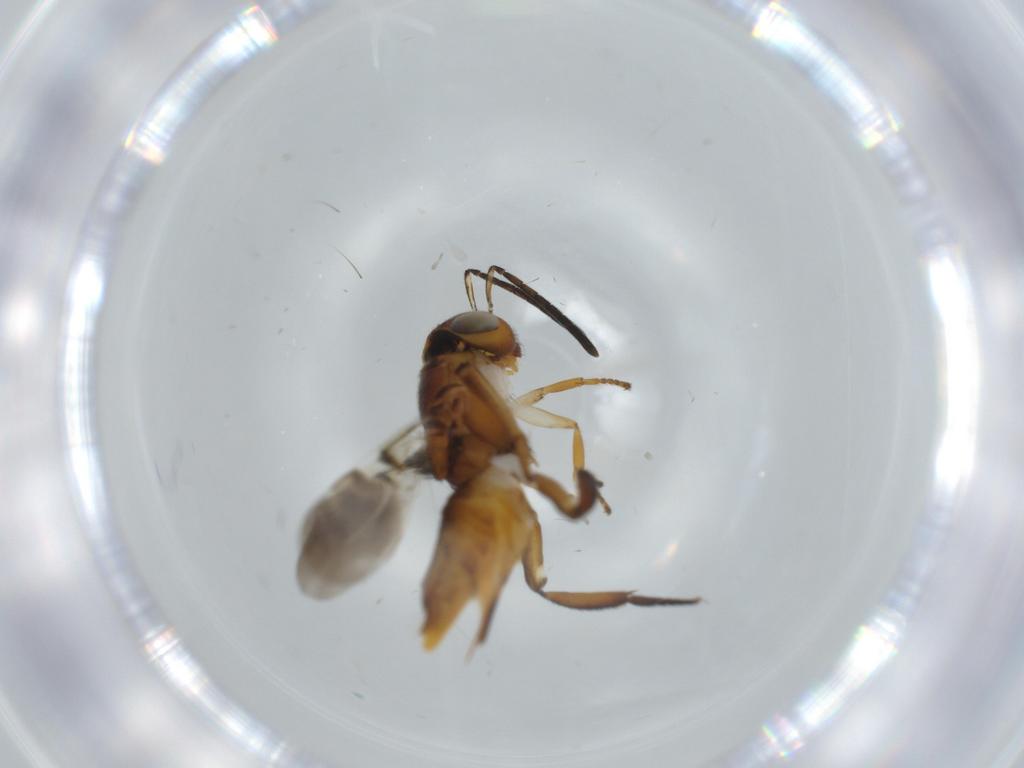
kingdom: Animalia
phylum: Arthropoda
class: Insecta
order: Hymenoptera
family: Encyrtidae
